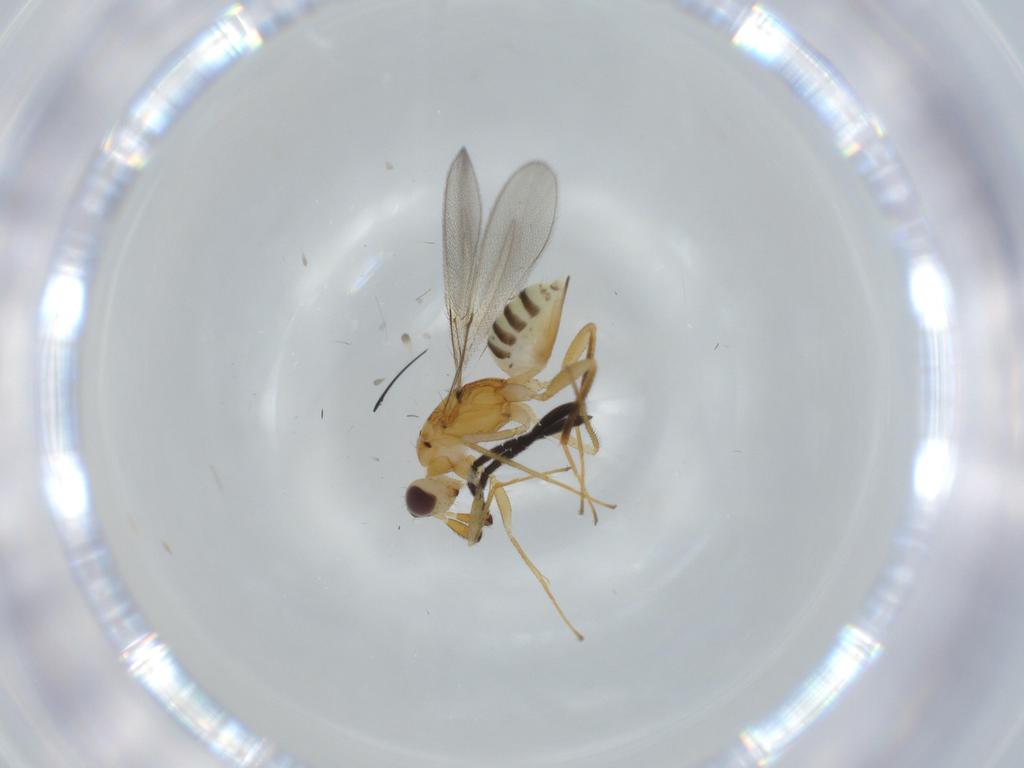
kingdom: Animalia
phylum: Arthropoda
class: Insecta
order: Hymenoptera
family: Mymaridae
